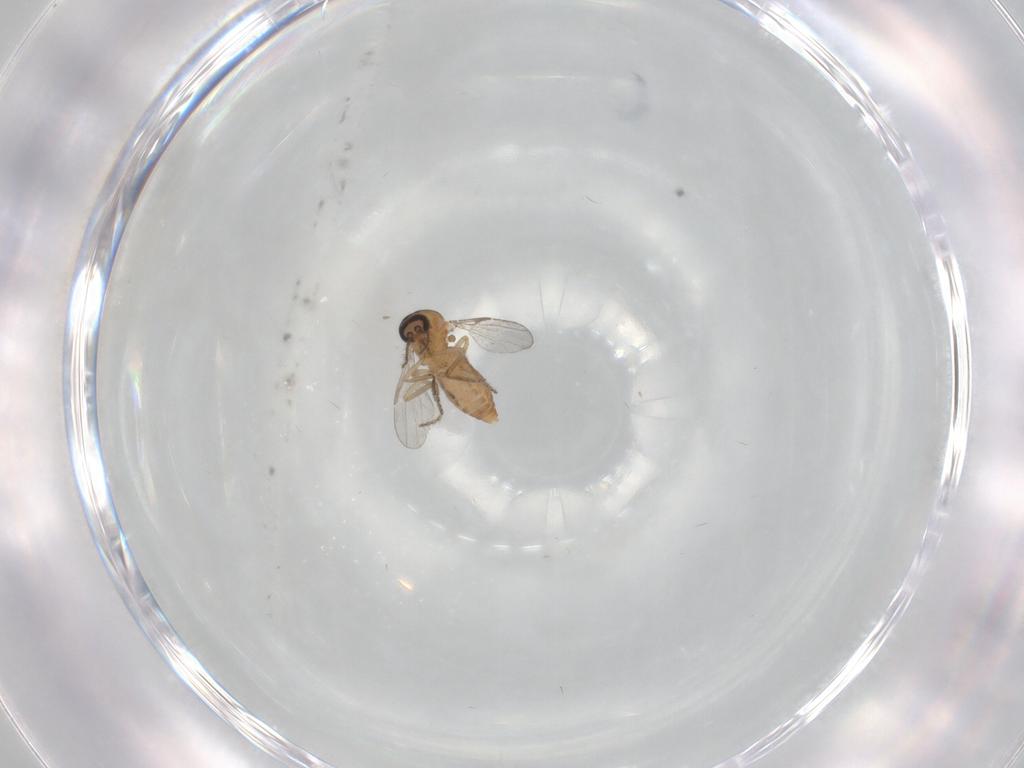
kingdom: Animalia
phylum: Arthropoda
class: Insecta
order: Diptera
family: Ceratopogonidae
